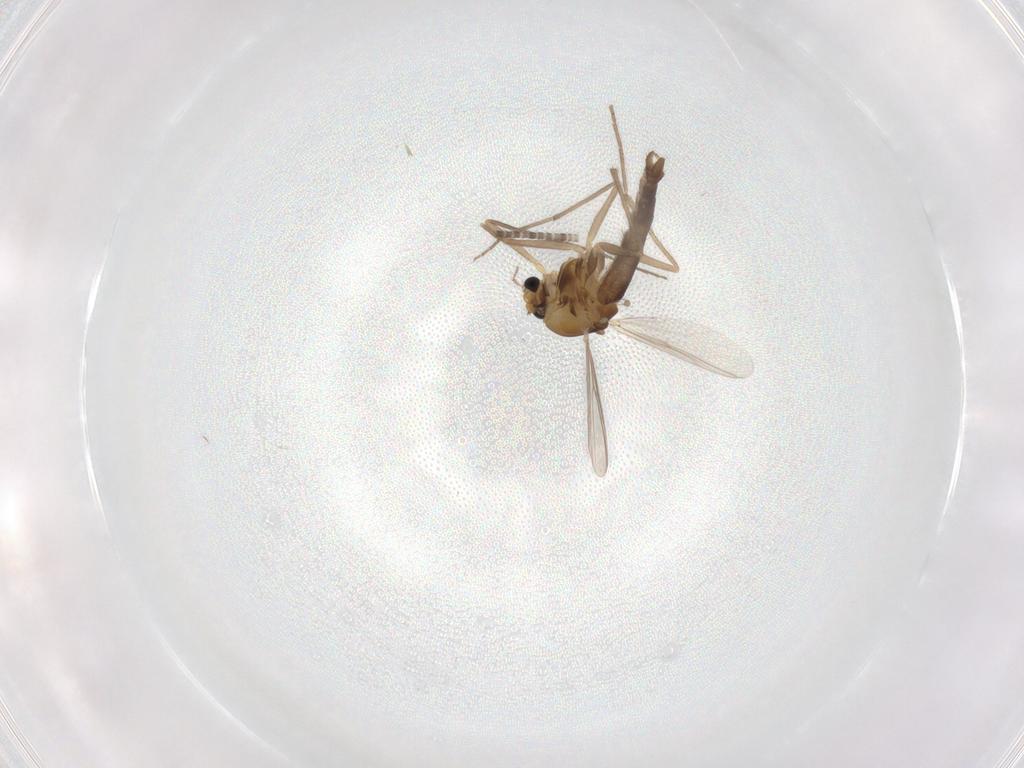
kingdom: Animalia
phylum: Arthropoda
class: Insecta
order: Diptera
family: Chironomidae
